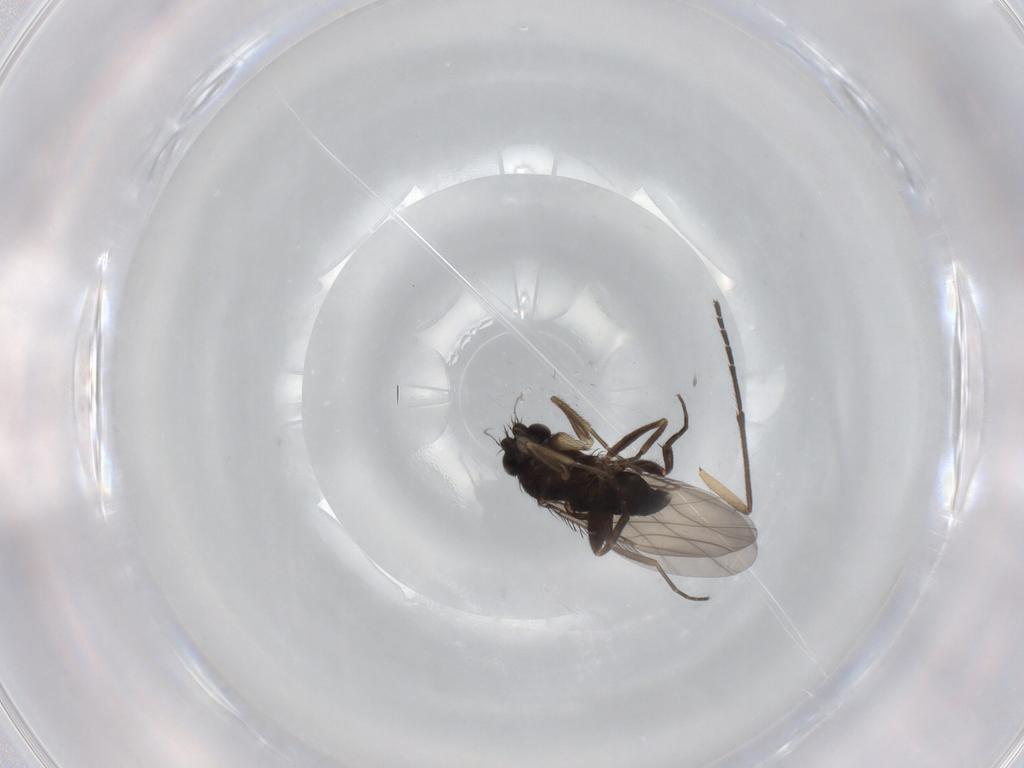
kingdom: Animalia
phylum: Arthropoda
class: Insecta
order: Diptera
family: Phoridae
